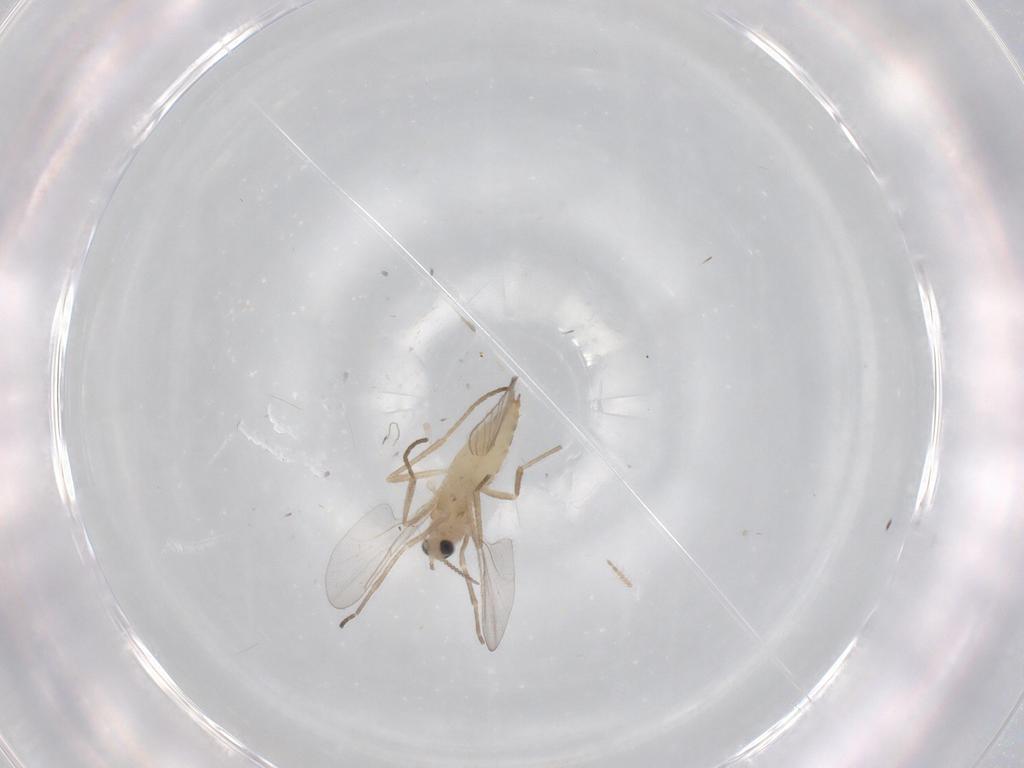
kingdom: Animalia
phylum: Arthropoda
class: Insecta
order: Diptera
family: Cecidomyiidae
